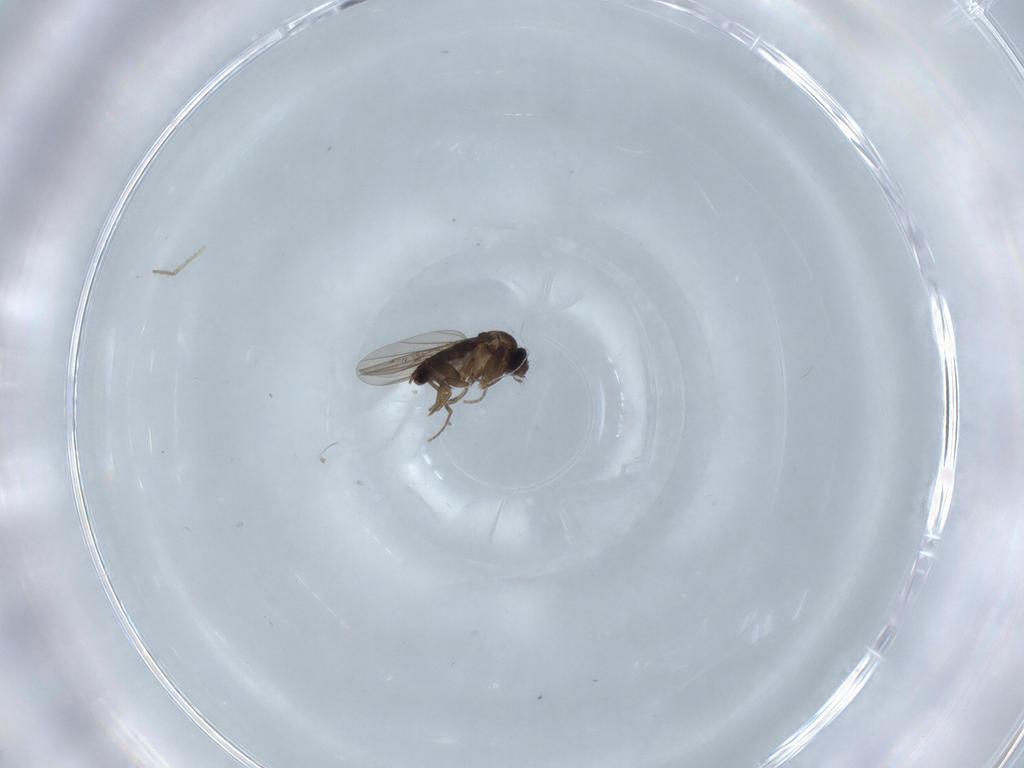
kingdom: Animalia
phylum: Arthropoda
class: Insecta
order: Diptera
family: Phoridae
